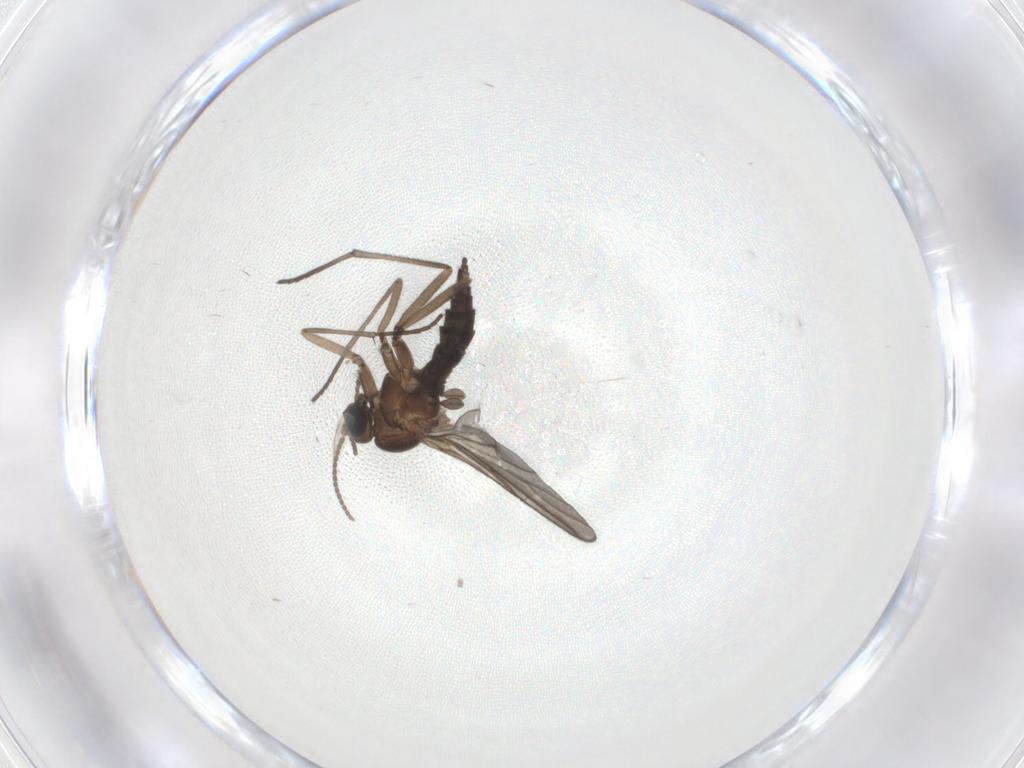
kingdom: Animalia
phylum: Arthropoda
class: Insecta
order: Diptera
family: Sciaridae
